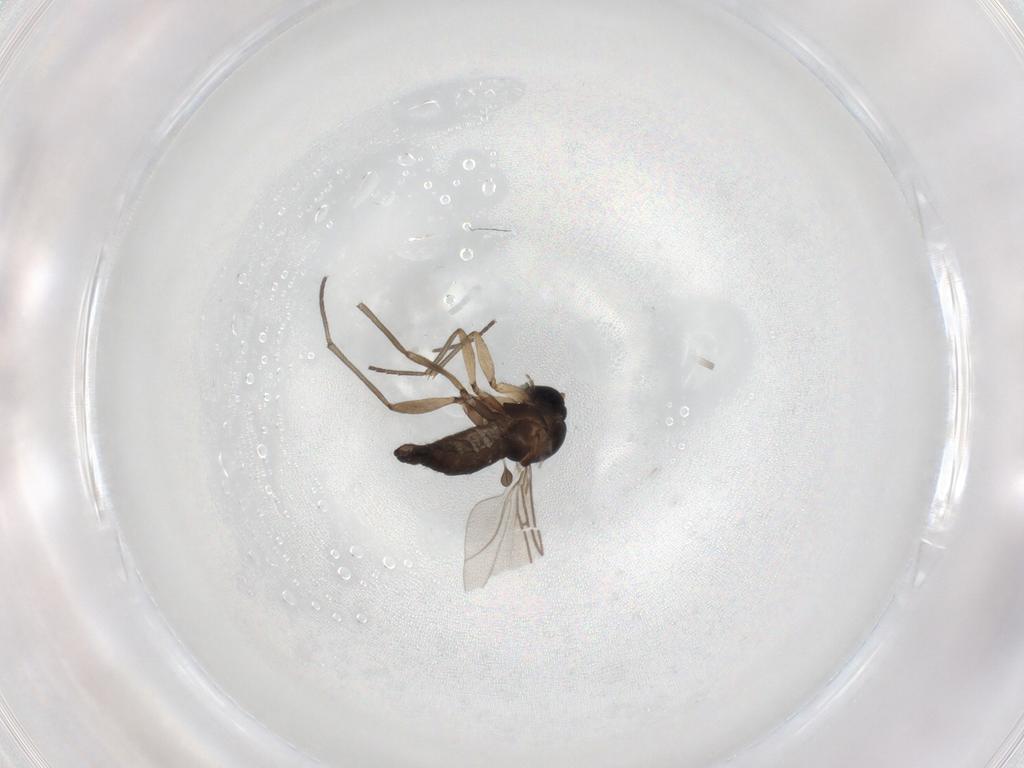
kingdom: Animalia
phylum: Arthropoda
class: Insecta
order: Diptera
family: Sciaridae
